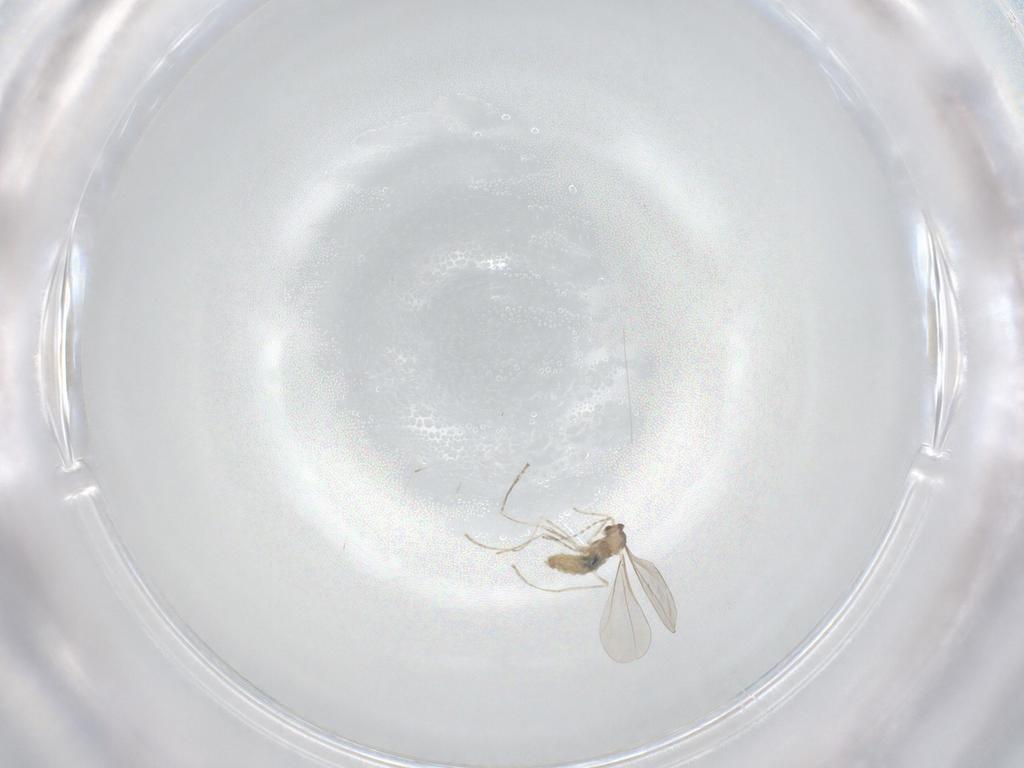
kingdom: Animalia
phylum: Arthropoda
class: Insecta
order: Diptera
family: Cecidomyiidae
